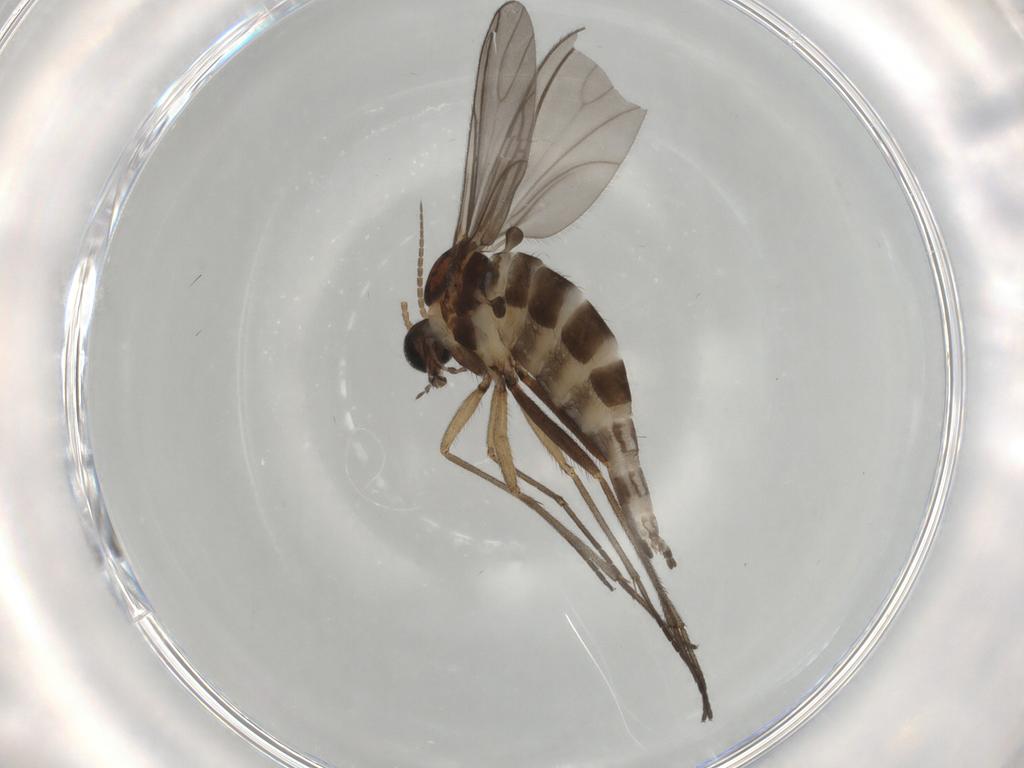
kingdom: Animalia
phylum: Arthropoda
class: Insecta
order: Diptera
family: Sciaridae
